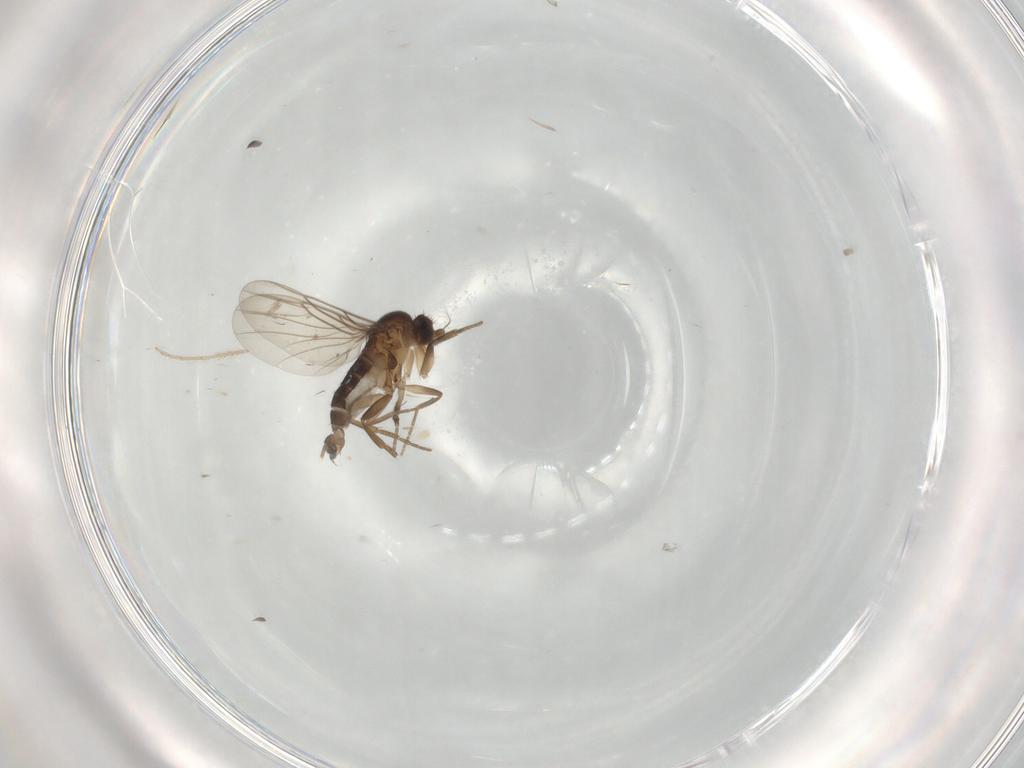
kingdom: Animalia
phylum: Arthropoda
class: Insecta
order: Diptera
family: Phoridae
